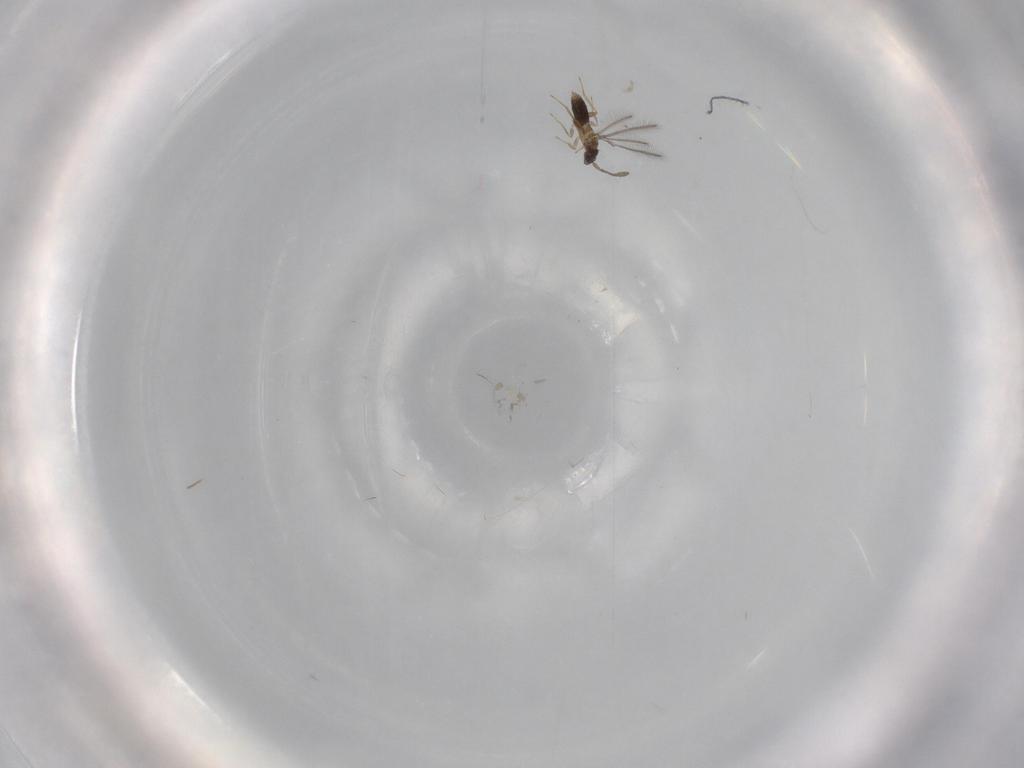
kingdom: Animalia
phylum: Arthropoda
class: Insecta
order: Hymenoptera
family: Mymaridae
